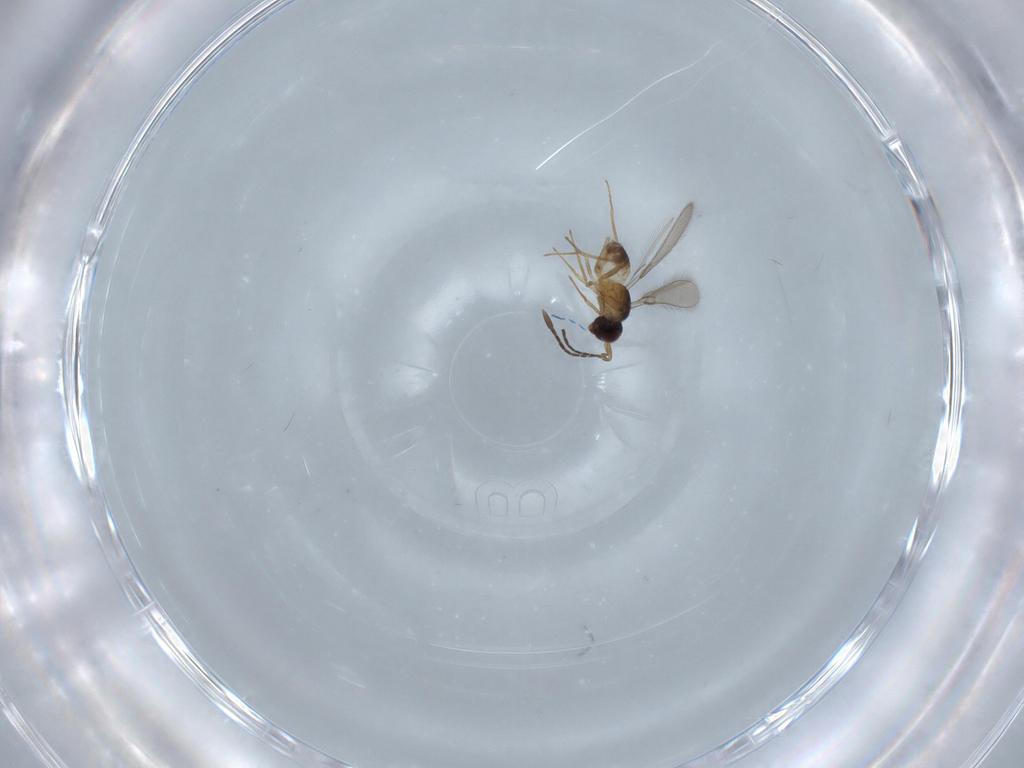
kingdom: Animalia
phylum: Arthropoda
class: Insecta
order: Hymenoptera
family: Mymaridae
